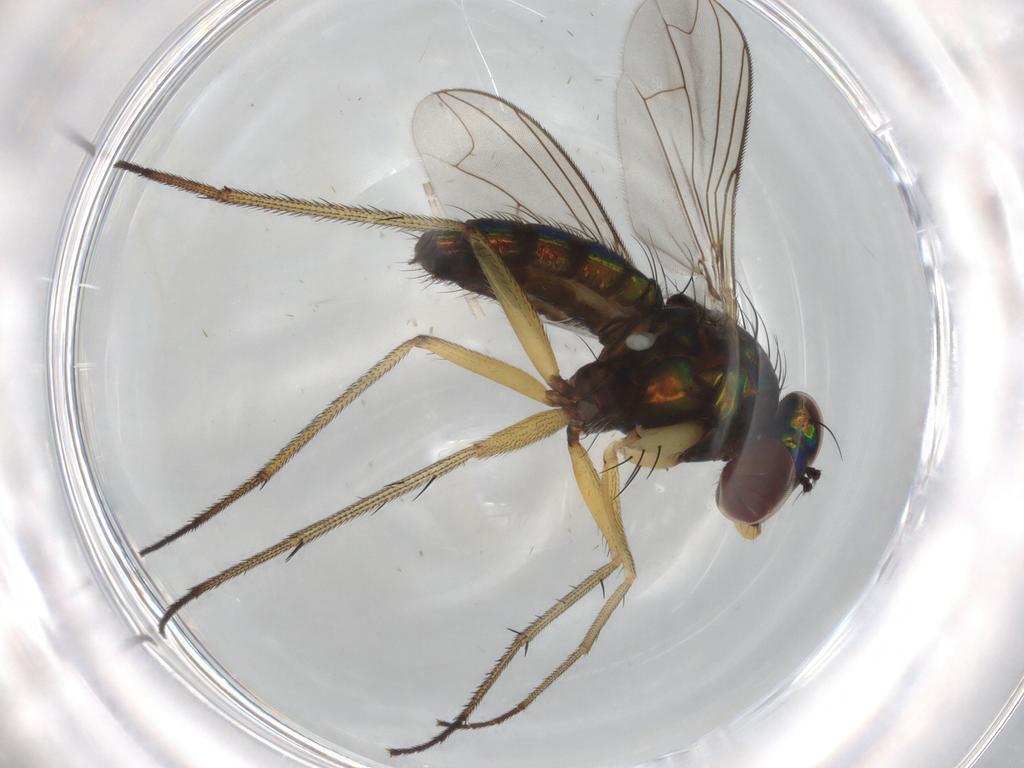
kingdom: Animalia
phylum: Arthropoda
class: Insecta
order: Diptera
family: Dolichopodidae
